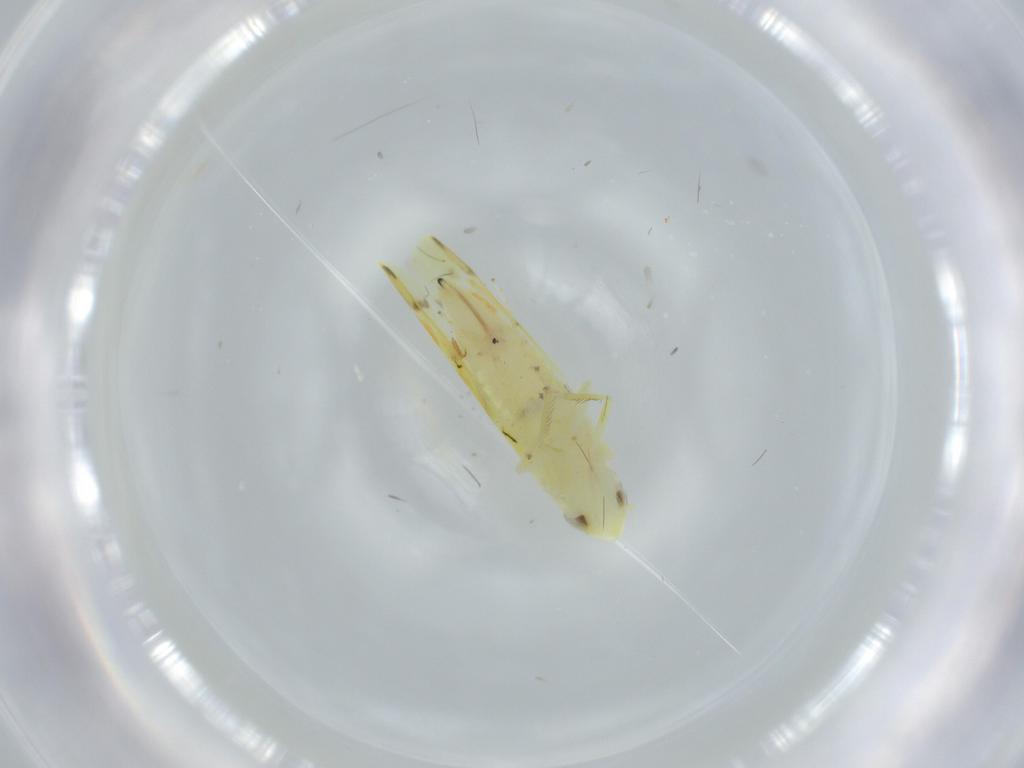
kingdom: Animalia
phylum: Arthropoda
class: Insecta
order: Hemiptera
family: Cicadellidae
